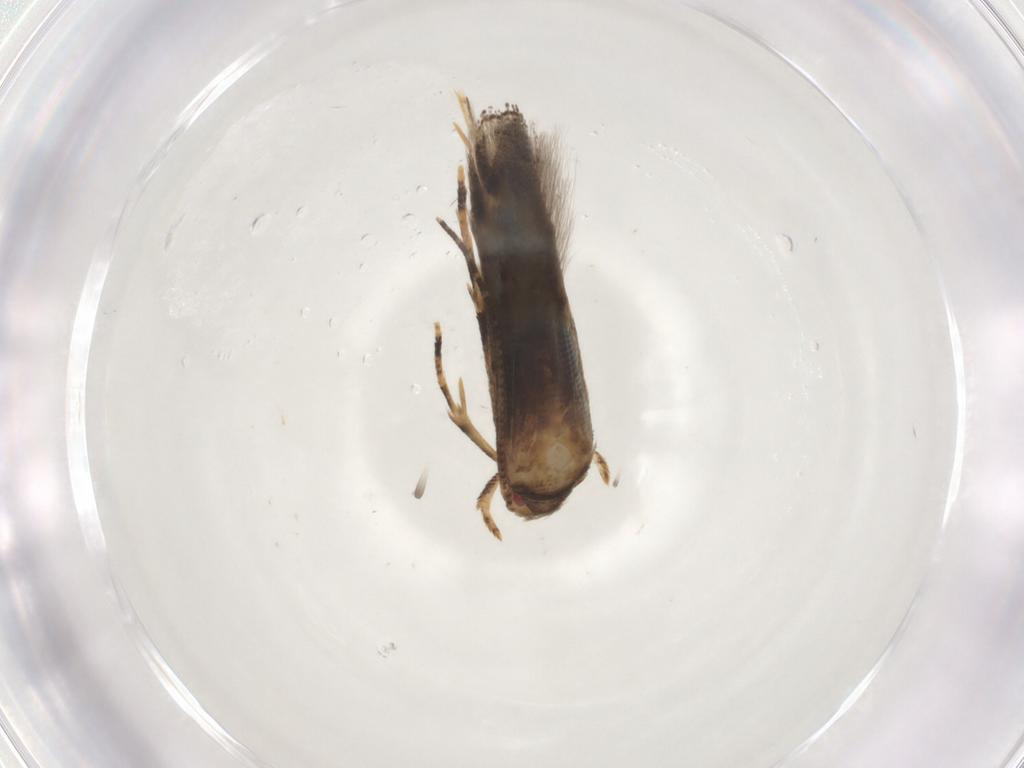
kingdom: Animalia
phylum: Arthropoda
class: Insecta
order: Lepidoptera
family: Tineidae
